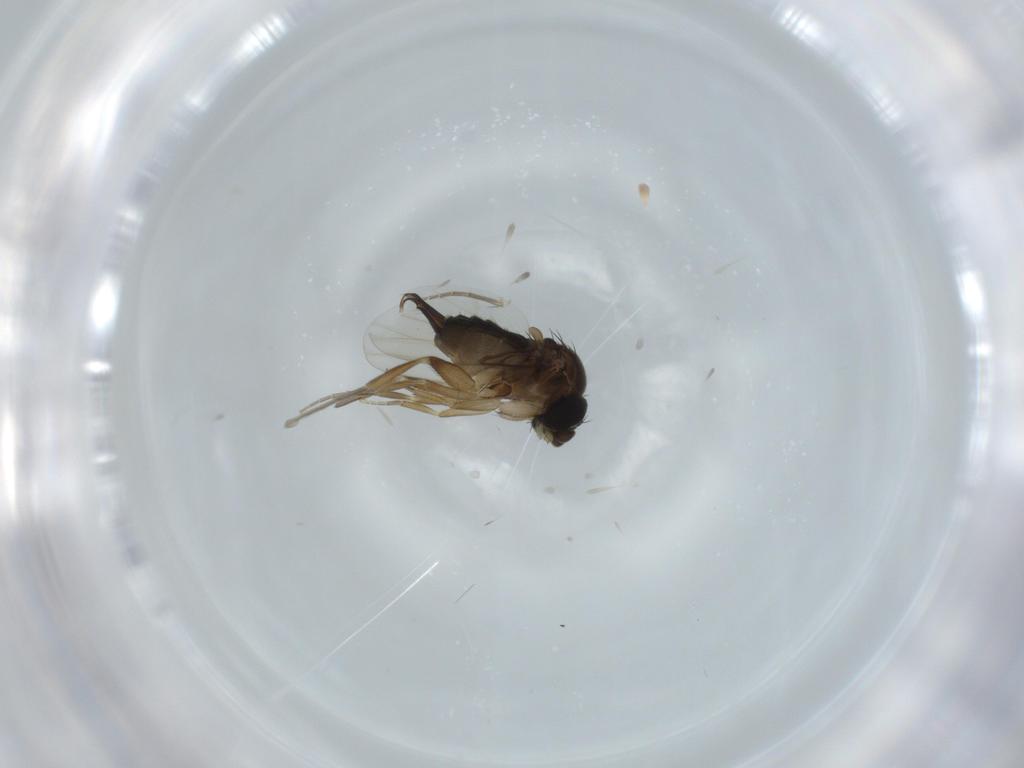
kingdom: Animalia
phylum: Arthropoda
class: Insecta
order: Diptera
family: Phoridae
